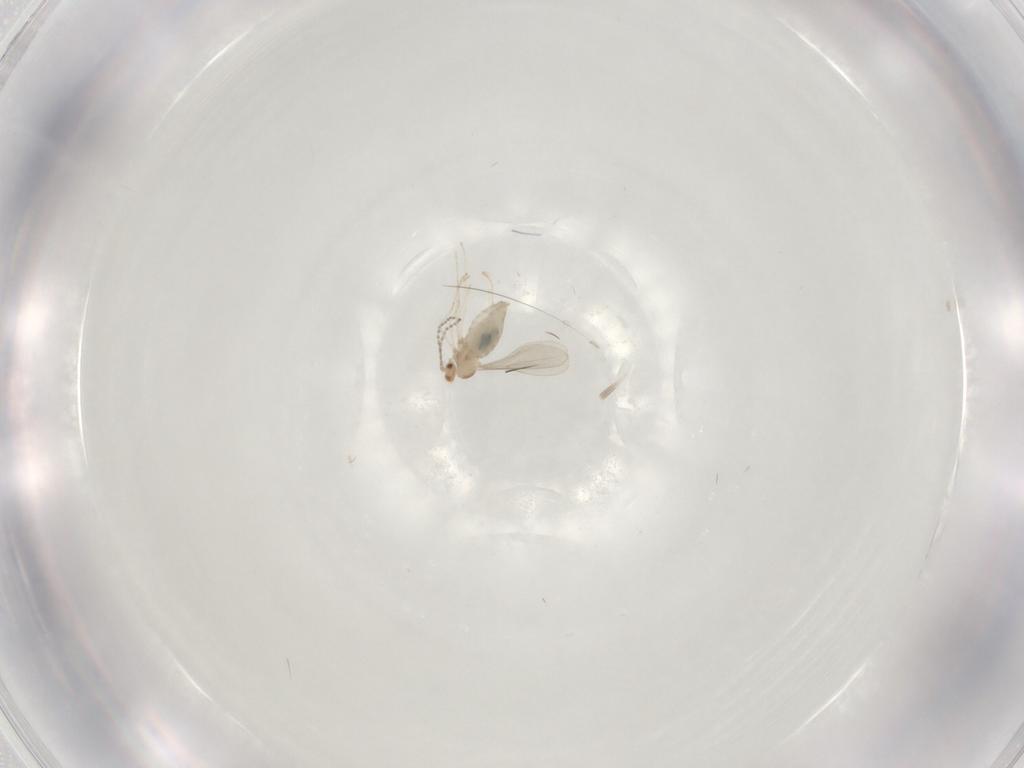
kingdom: Animalia
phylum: Arthropoda
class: Insecta
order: Diptera
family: Cecidomyiidae
